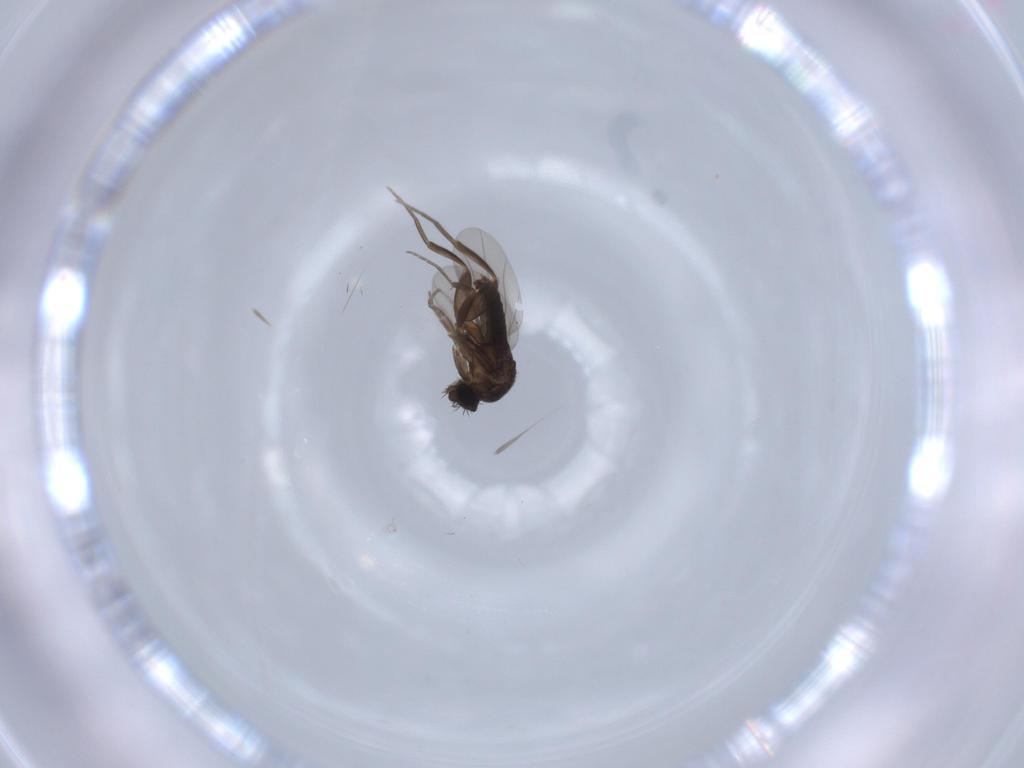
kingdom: Animalia
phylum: Arthropoda
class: Insecta
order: Diptera
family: Phoridae
